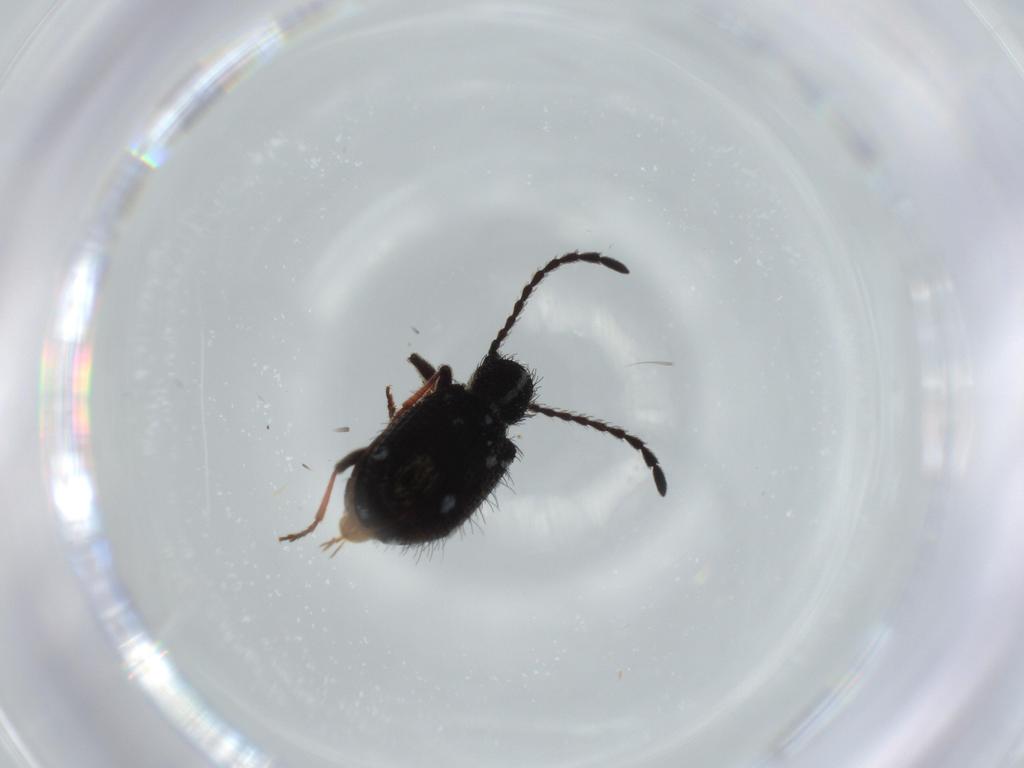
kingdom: Animalia
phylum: Arthropoda
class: Insecta
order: Coleoptera
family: Ptinidae
